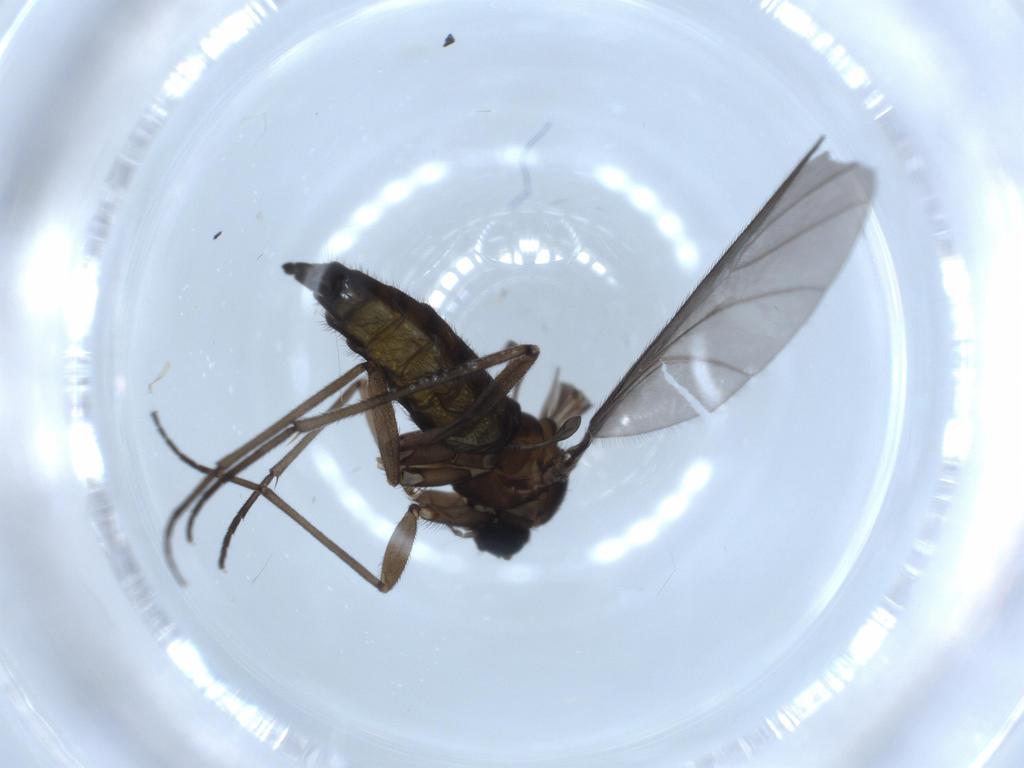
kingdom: Animalia
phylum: Arthropoda
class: Insecta
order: Diptera
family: Sciaridae
